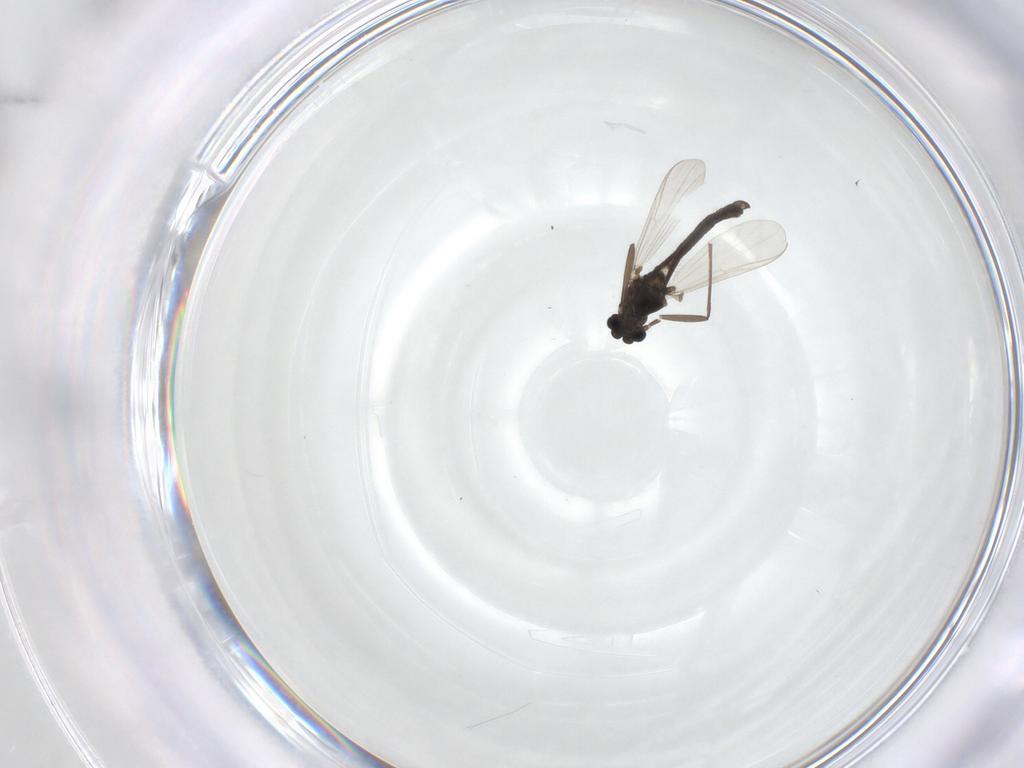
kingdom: Animalia
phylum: Arthropoda
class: Insecta
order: Diptera
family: Chironomidae
